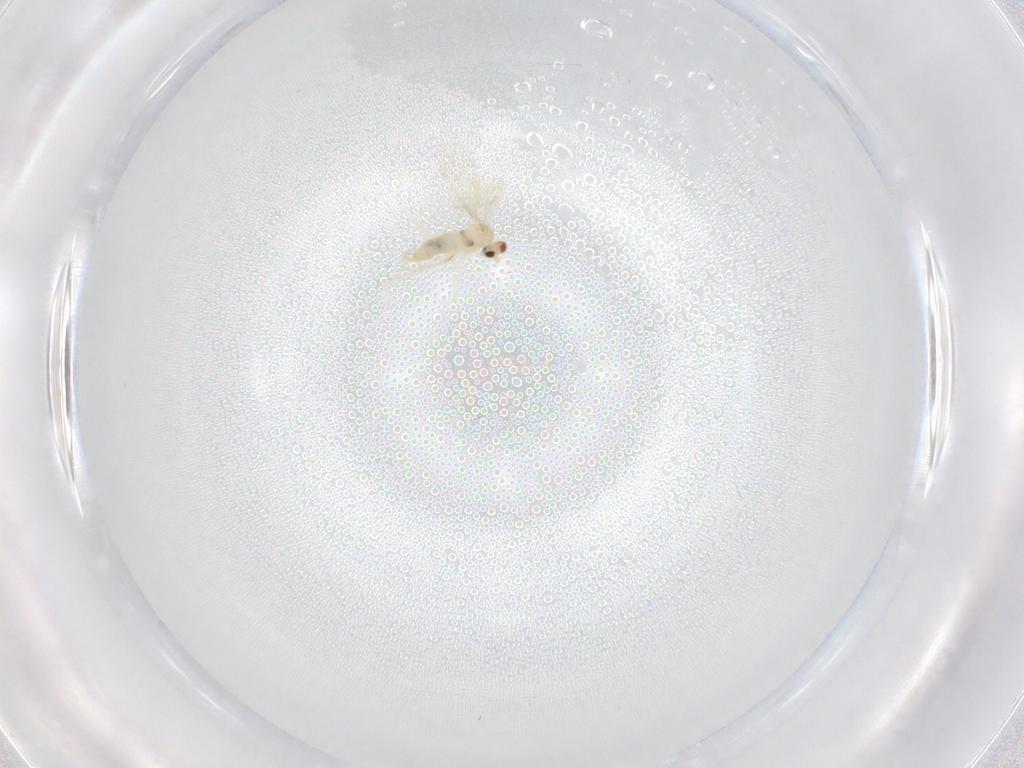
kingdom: Animalia
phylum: Arthropoda
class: Insecta
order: Diptera
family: Cecidomyiidae
